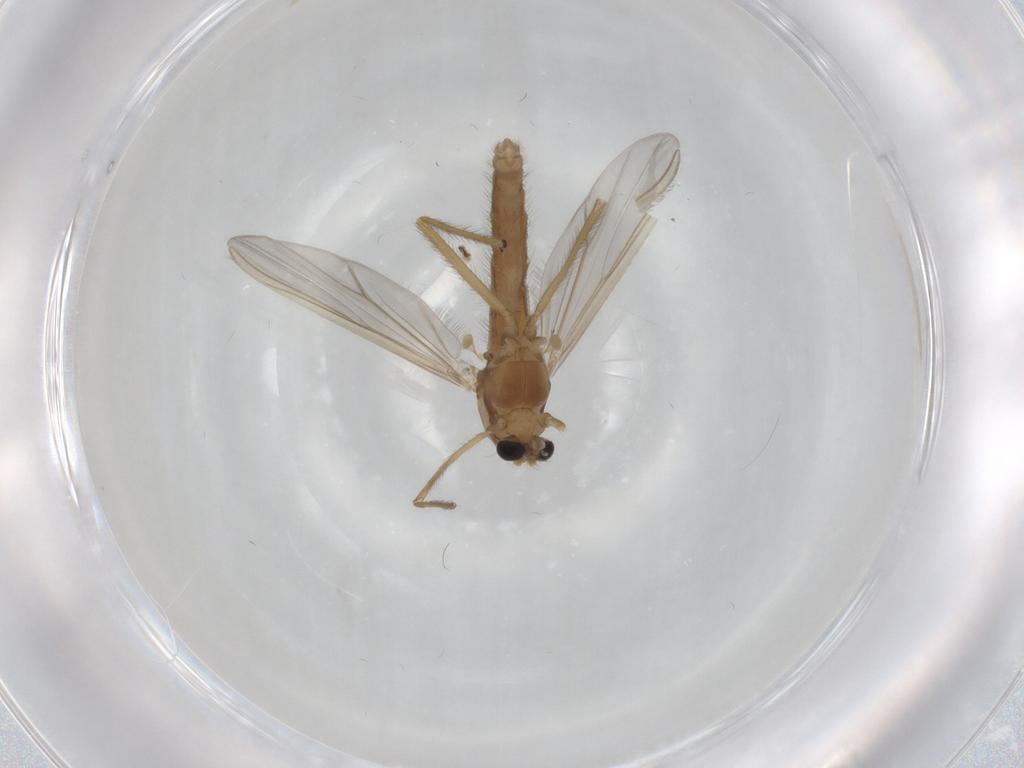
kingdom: Animalia
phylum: Arthropoda
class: Insecta
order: Diptera
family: Chironomidae
